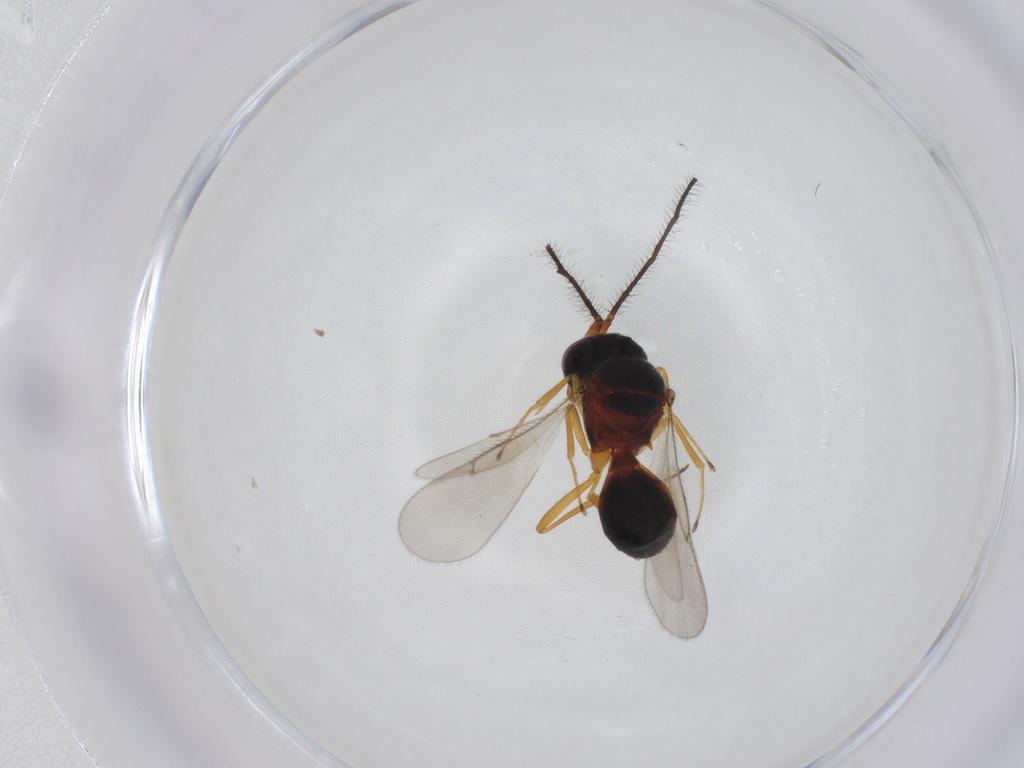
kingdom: Animalia
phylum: Arthropoda
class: Insecta
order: Hymenoptera
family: Scelionidae
